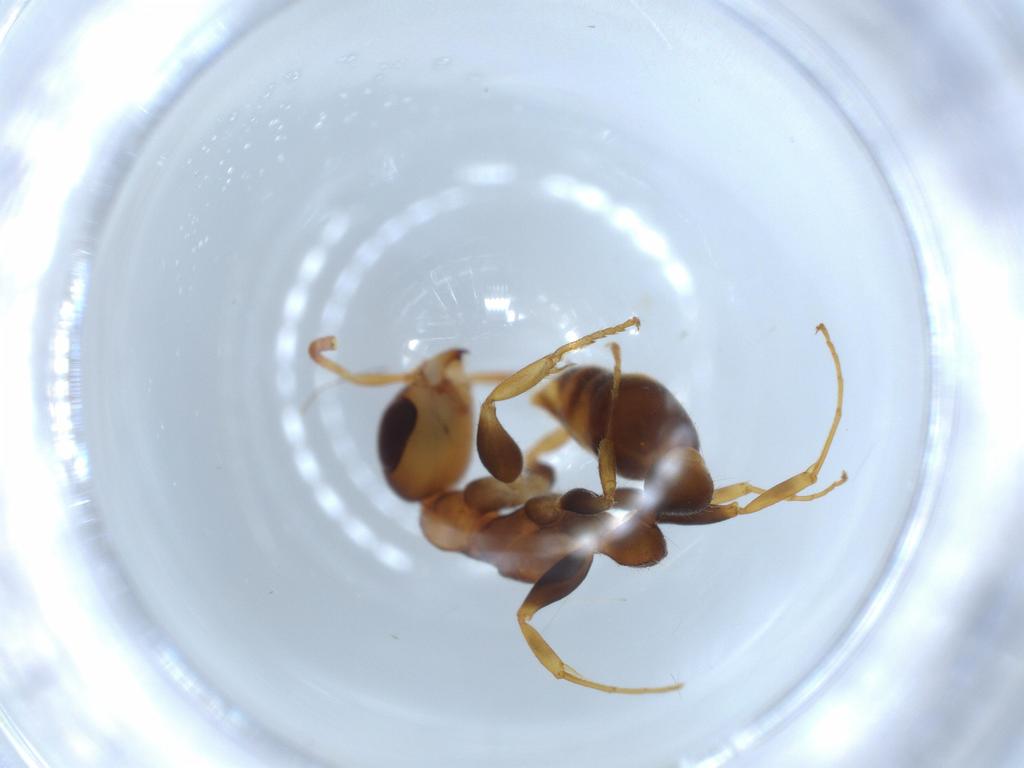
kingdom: Animalia
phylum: Arthropoda
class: Insecta
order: Hymenoptera
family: Formicidae
